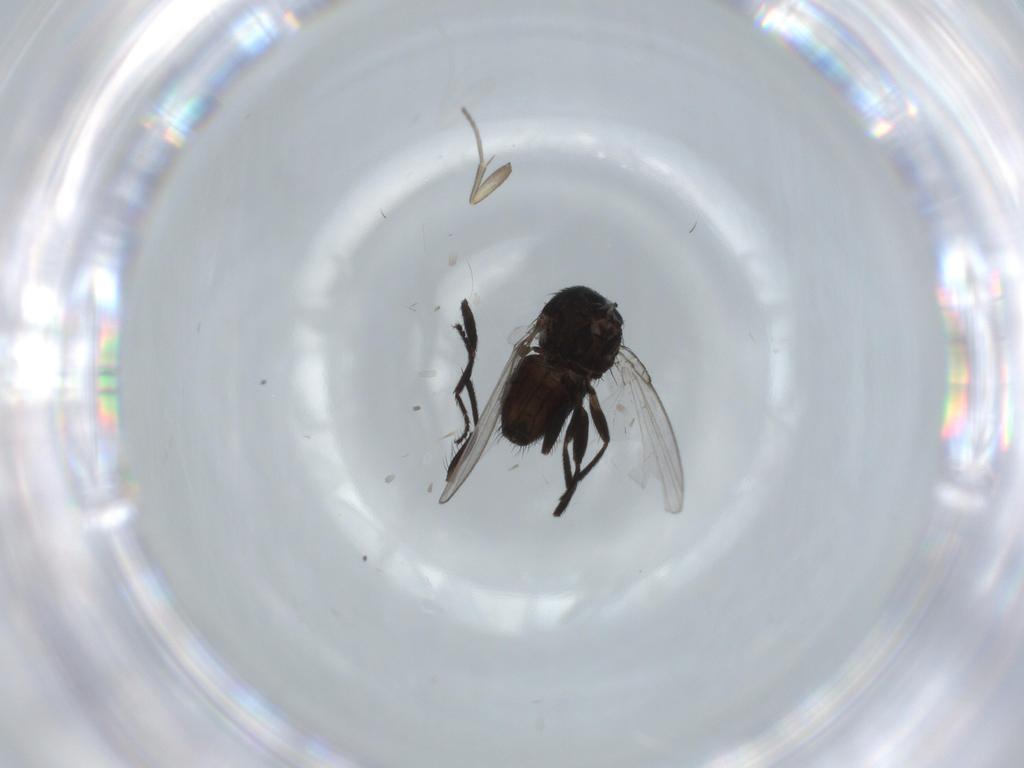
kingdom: Animalia
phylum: Arthropoda
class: Insecta
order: Diptera
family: Milichiidae
